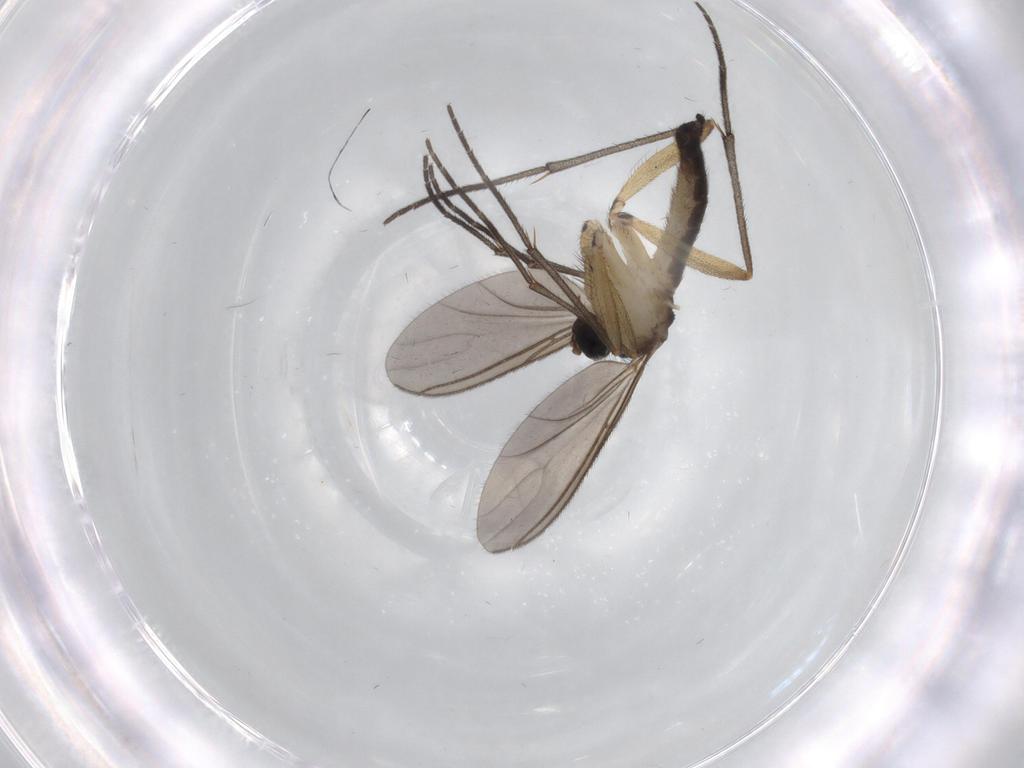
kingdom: Animalia
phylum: Arthropoda
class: Insecta
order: Diptera
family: Sciaridae
